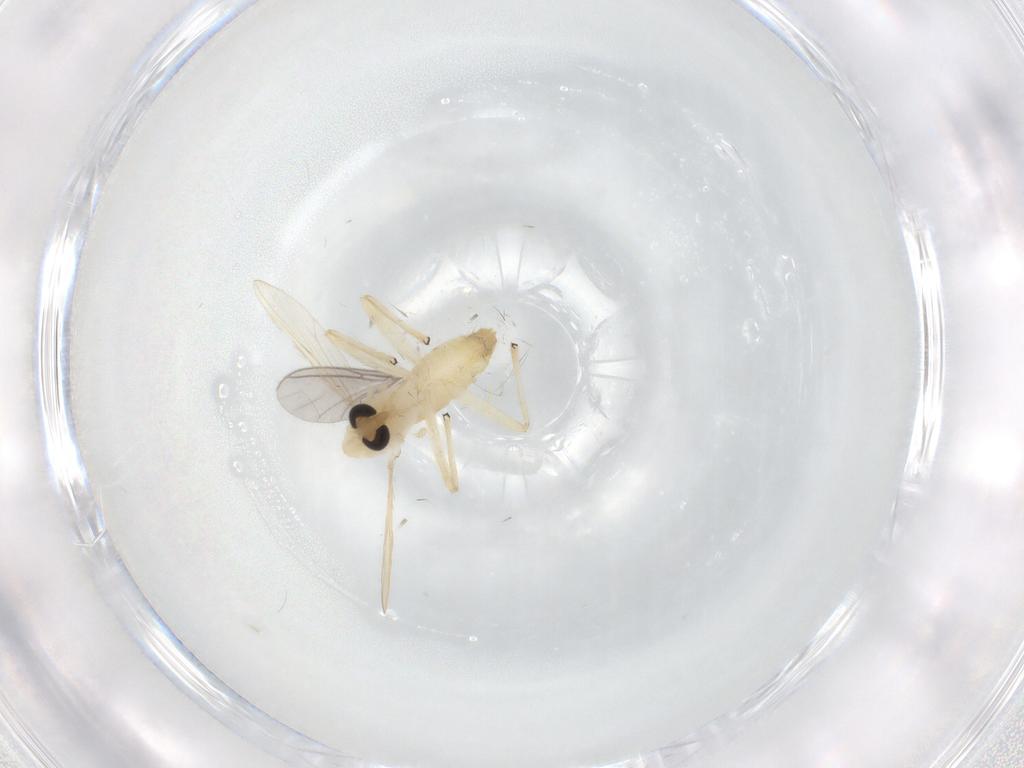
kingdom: Animalia
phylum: Arthropoda
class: Insecta
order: Diptera
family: Chironomidae
